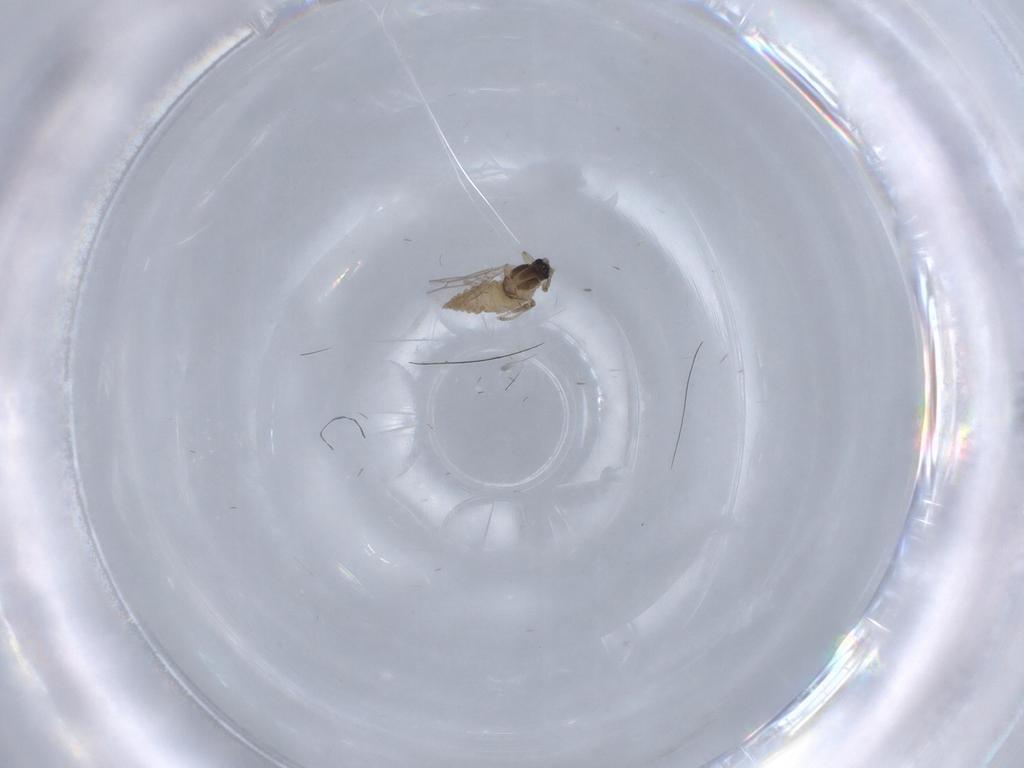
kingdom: Animalia
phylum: Arthropoda
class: Insecta
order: Diptera
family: Cecidomyiidae
